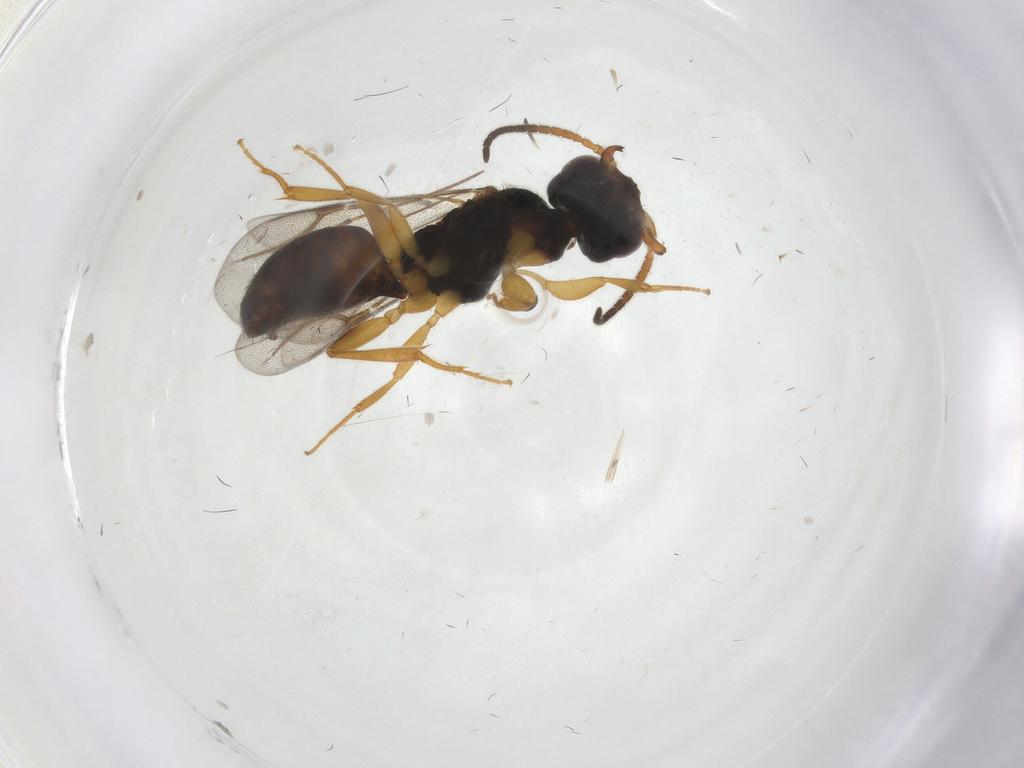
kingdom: Animalia
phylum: Arthropoda
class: Insecta
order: Hymenoptera
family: Bethylidae
